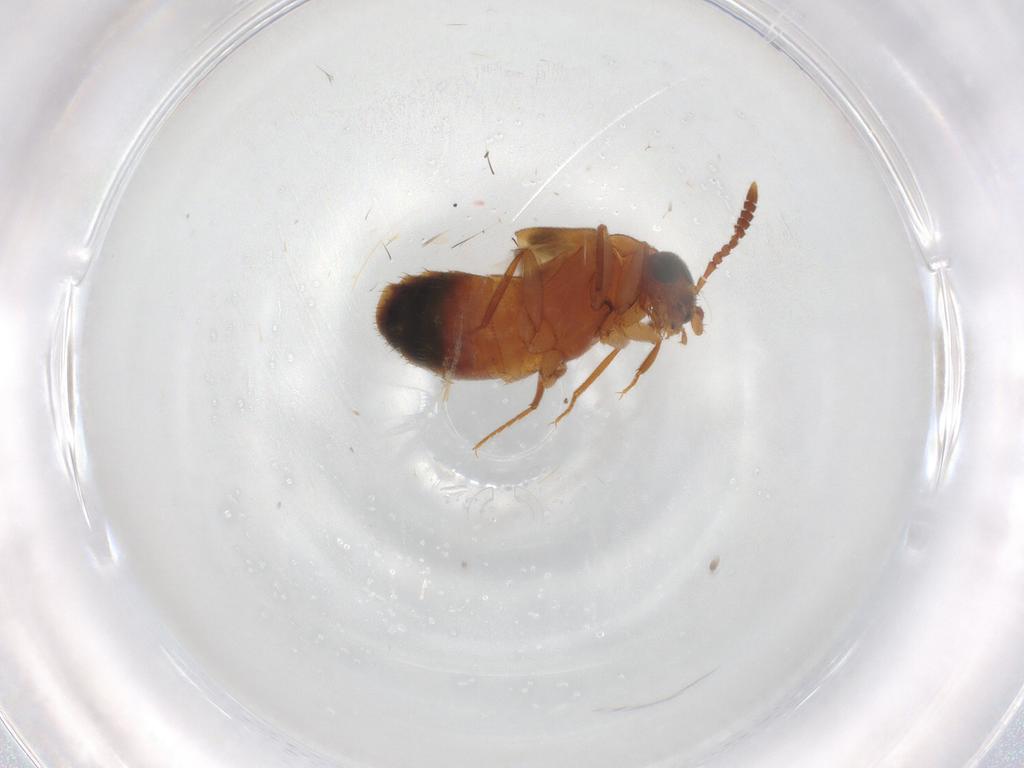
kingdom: Animalia
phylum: Arthropoda
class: Insecta
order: Coleoptera
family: Staphylinidae
